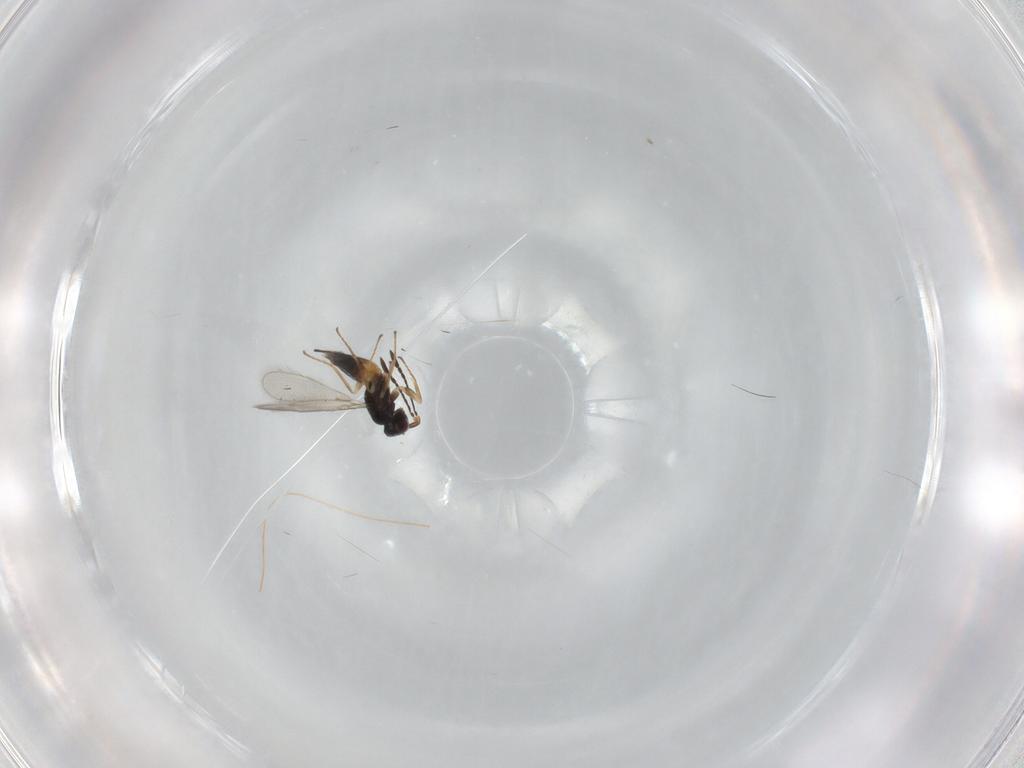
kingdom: Animalia
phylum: Arthropoda
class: Insecta
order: Hymenoptera
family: Mymaridae
